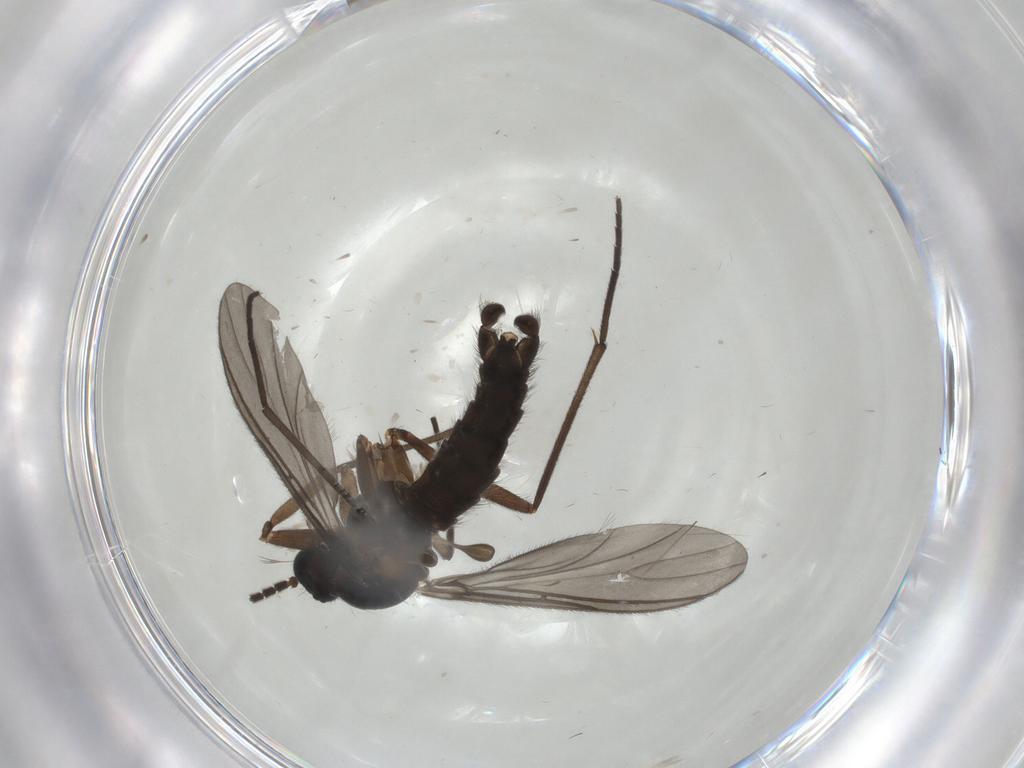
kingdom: Animalia
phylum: Arthropoda
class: Insecta
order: Diptera
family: Sciaridae
